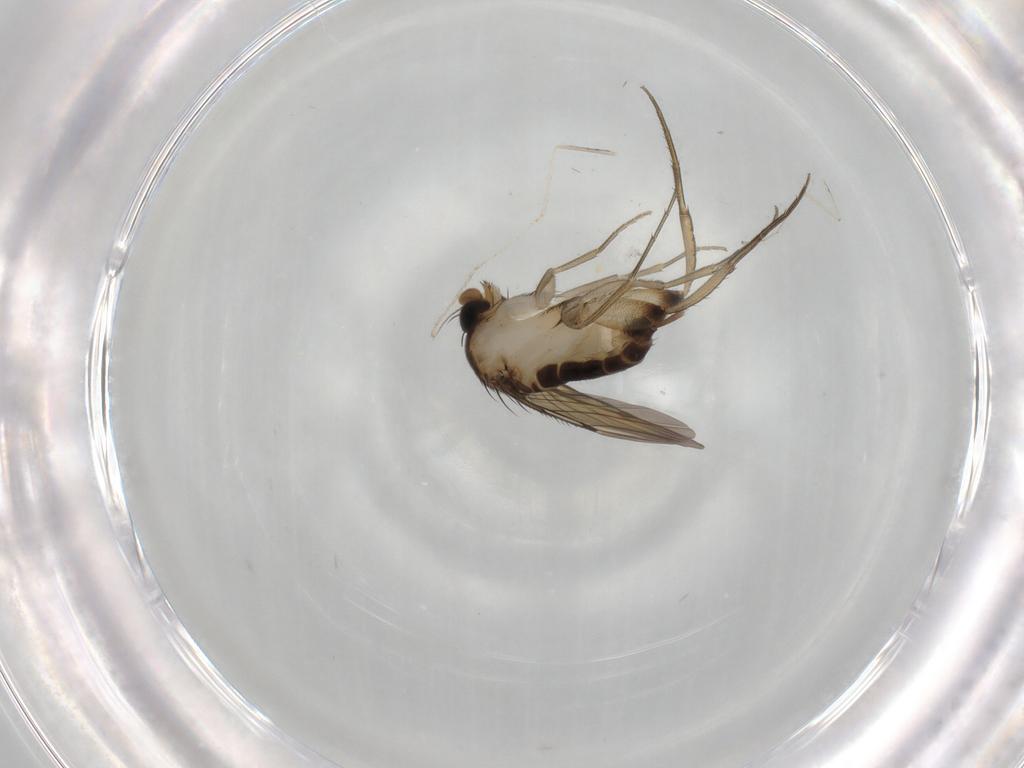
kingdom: Animalia
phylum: Arthropoda
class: Insecta
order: Diptera
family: Phoridae
